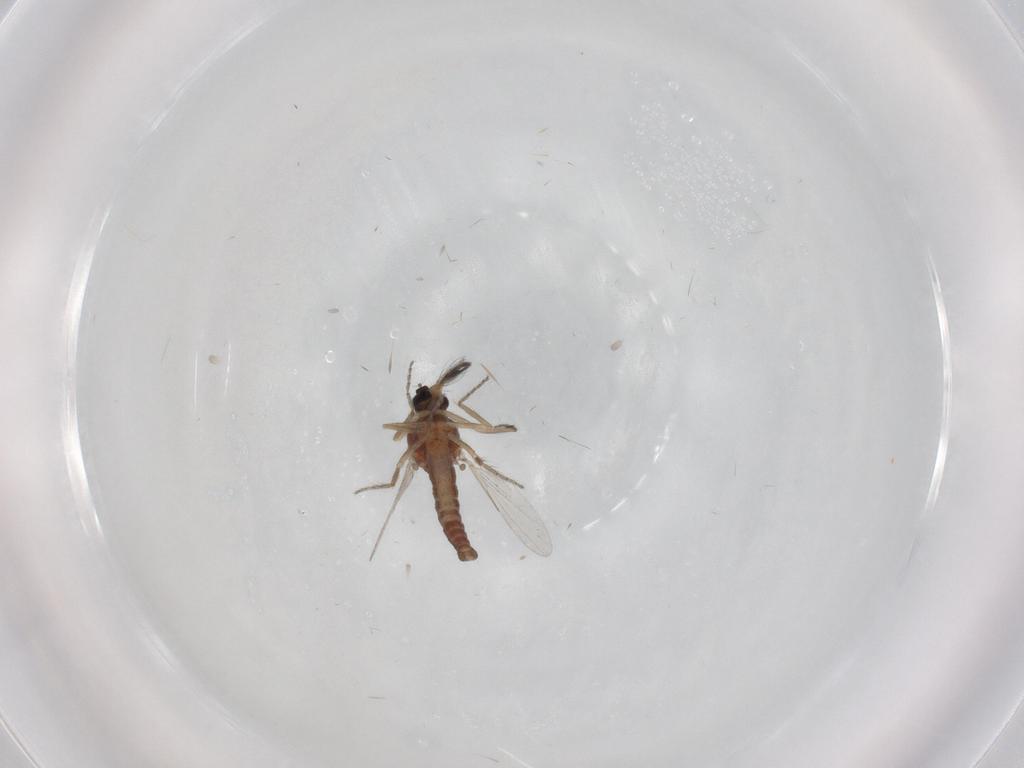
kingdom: Animalia
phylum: Arthropoda
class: Insecta
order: Diptera
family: Ceratopogonidae
